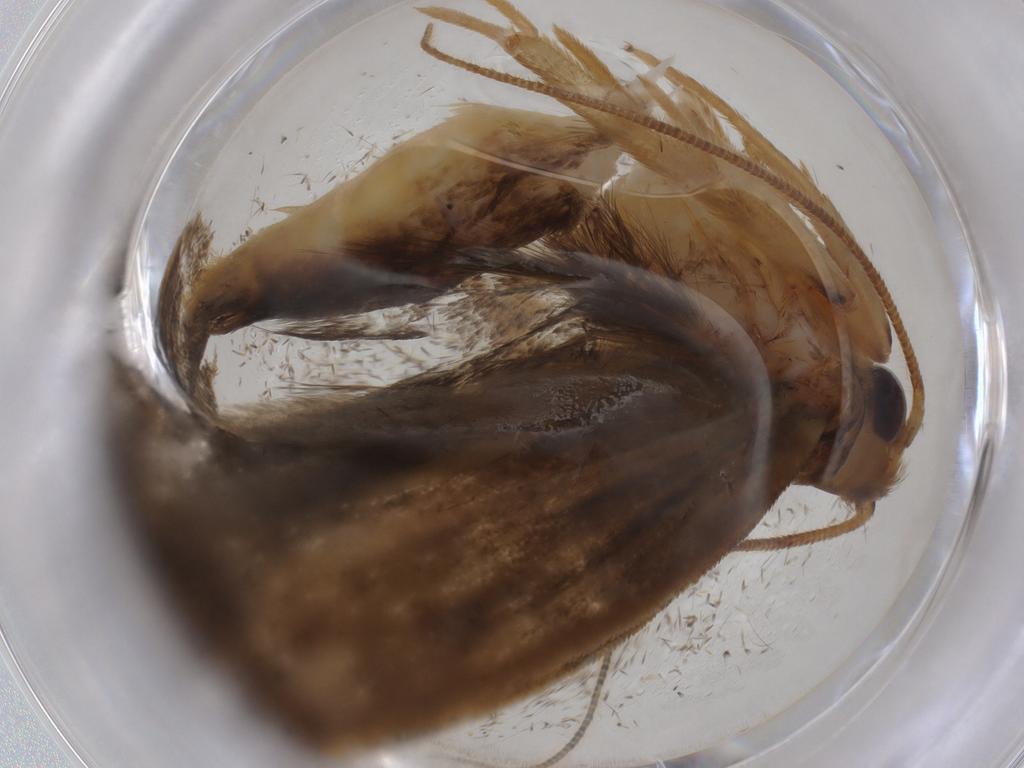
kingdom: Animalia
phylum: Arthropoda
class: Insecta
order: Lepidoptera
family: Depressariidae
